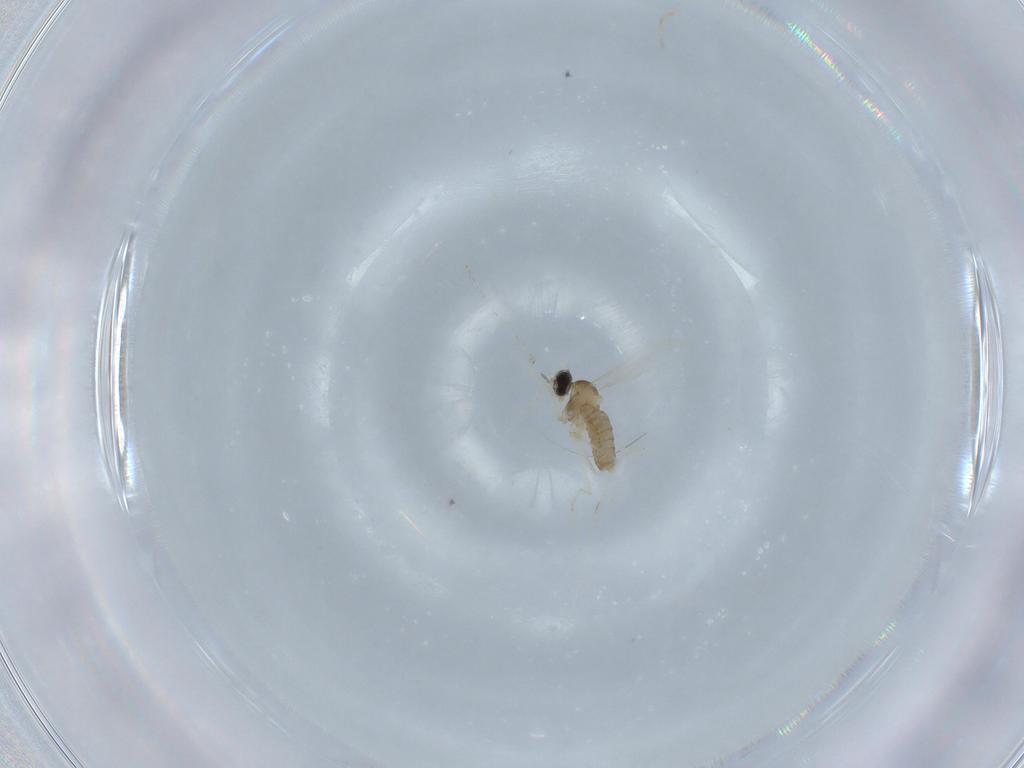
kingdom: Animalia
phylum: Arthropoda
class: Insecta
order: Diptera
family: Cecidomyiidae
